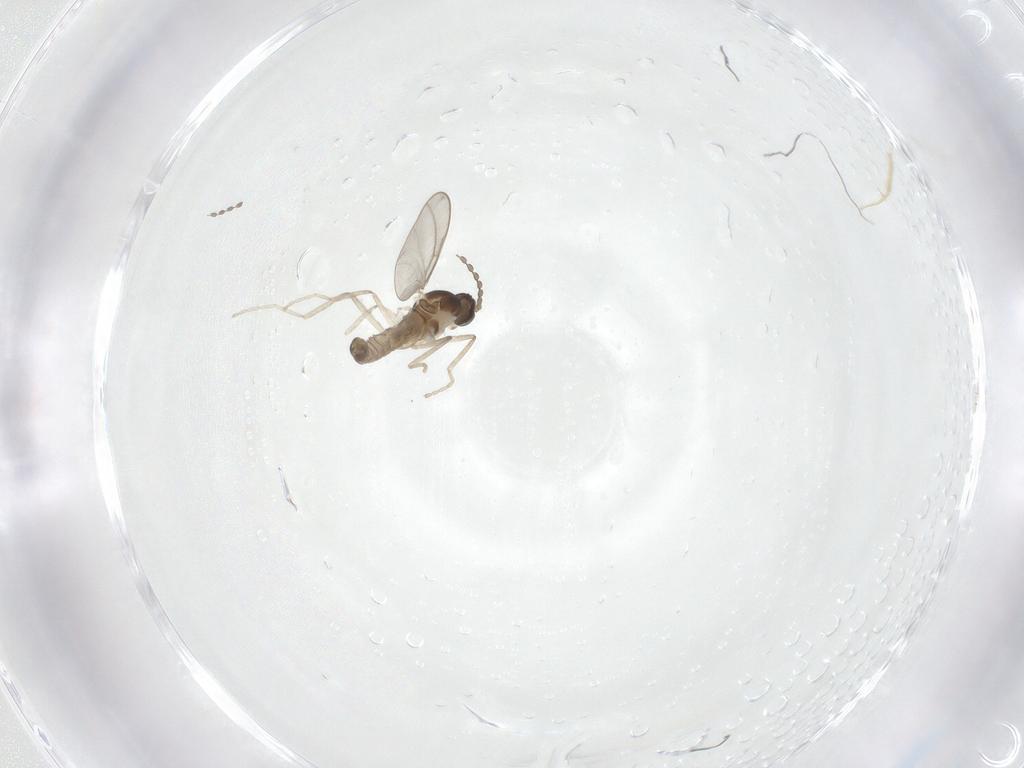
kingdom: Animalia
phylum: Arthropoda
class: Insecta
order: Diptera
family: Cecidomyiidae
